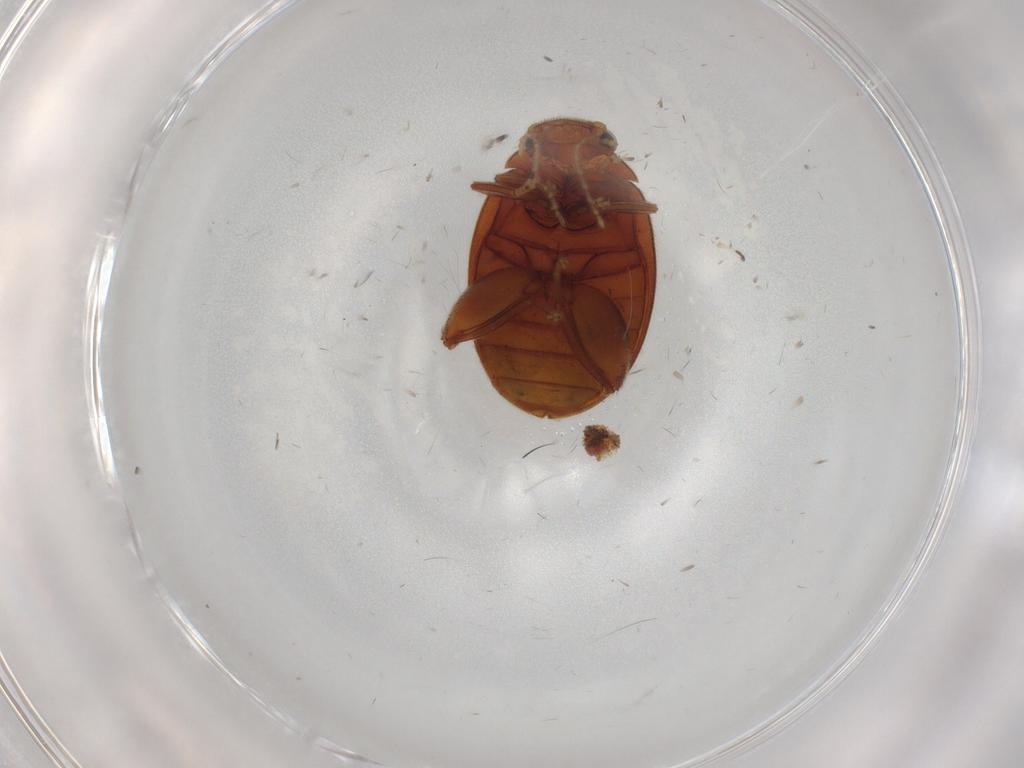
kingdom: Animalia
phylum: Arthropoda
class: Insecta
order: Coleoptera
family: Scirtidae
